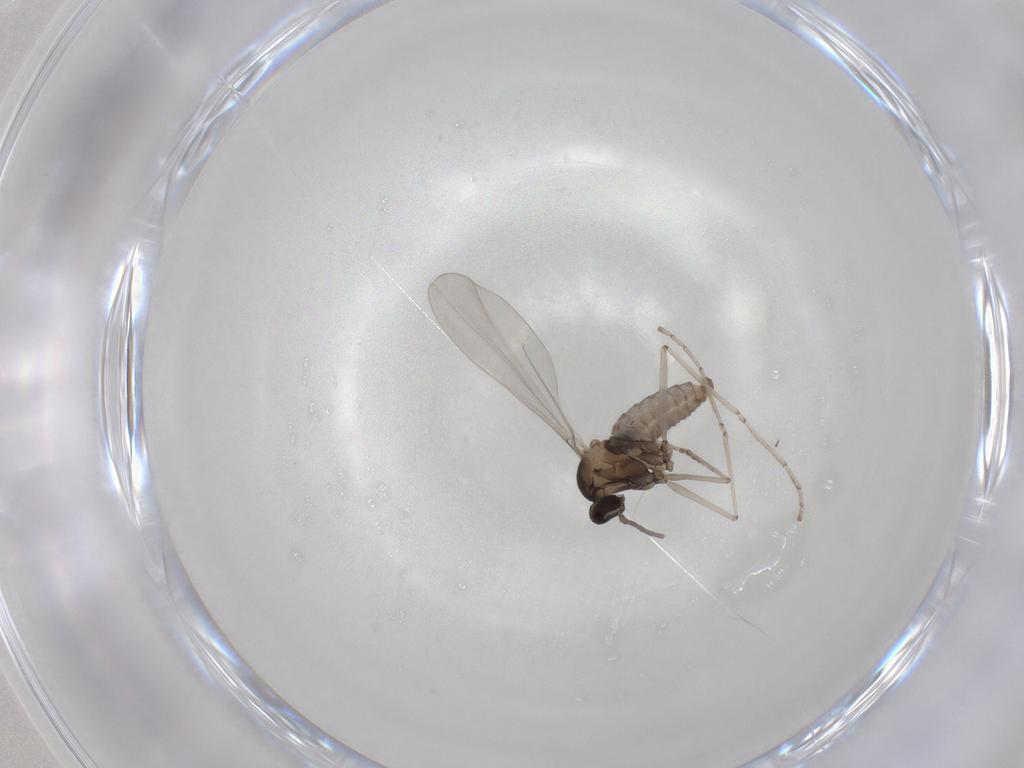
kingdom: Animalia
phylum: Arthropoda
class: Insecta
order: Diptera
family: Cecidomyiidae
